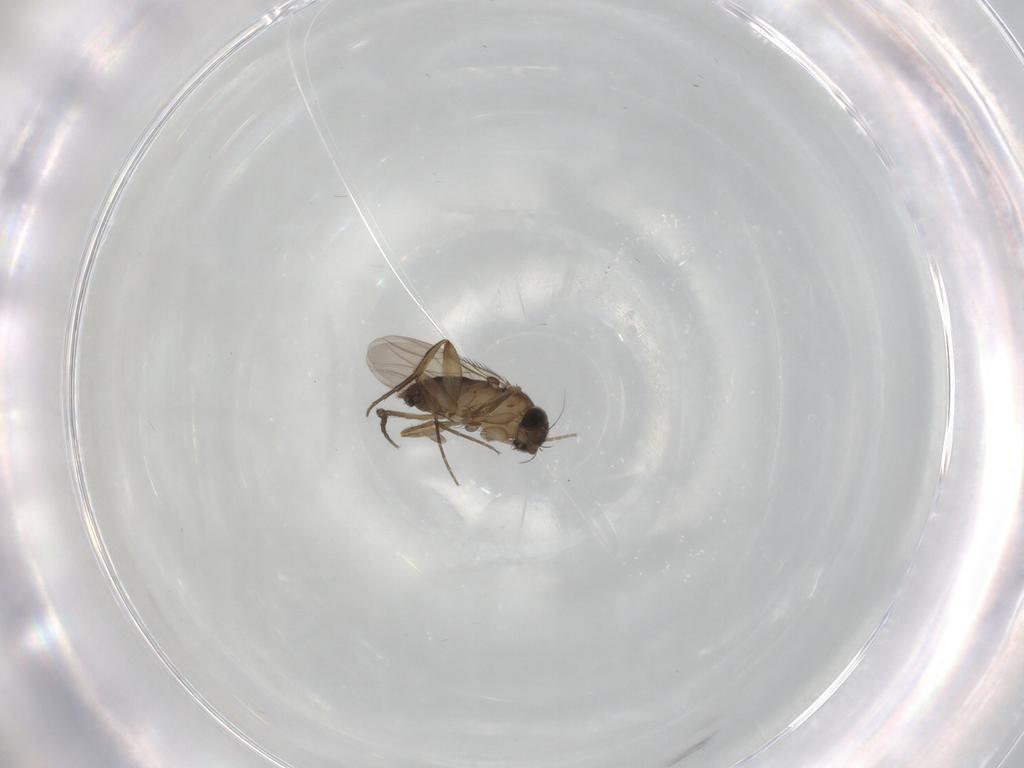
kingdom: Animalia
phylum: Arthropoda
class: Insecta
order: Diptera
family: Phoridae
